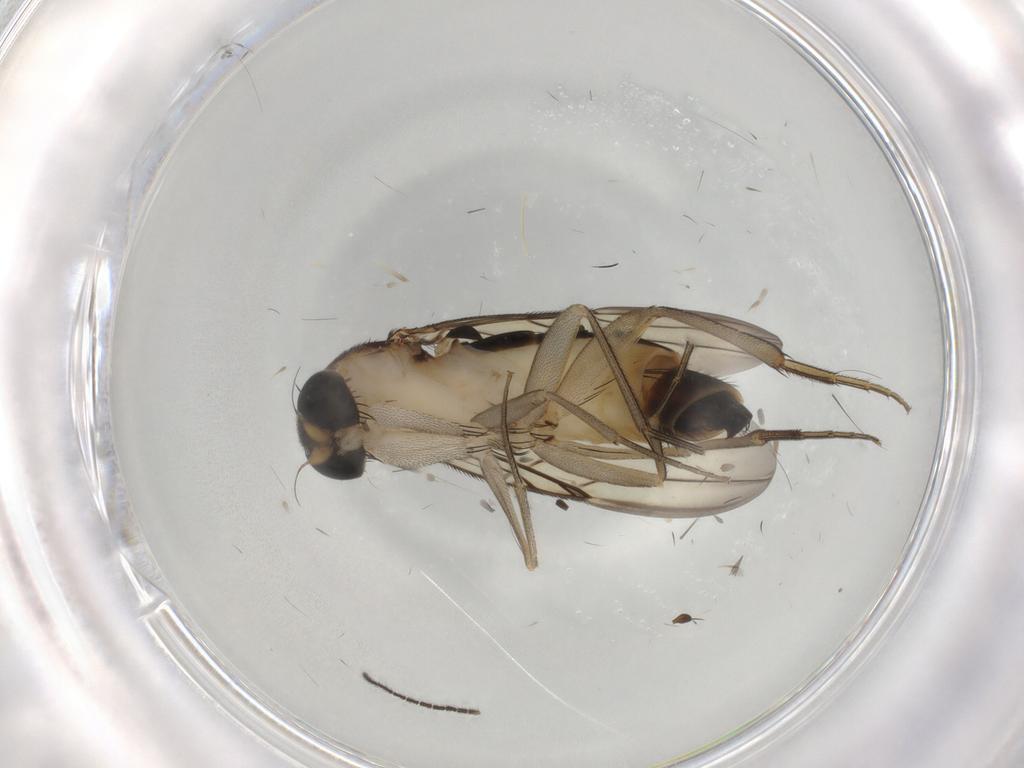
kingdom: Animalia
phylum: Arthropoda
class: Insecta
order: Diptera
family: Phoridae
